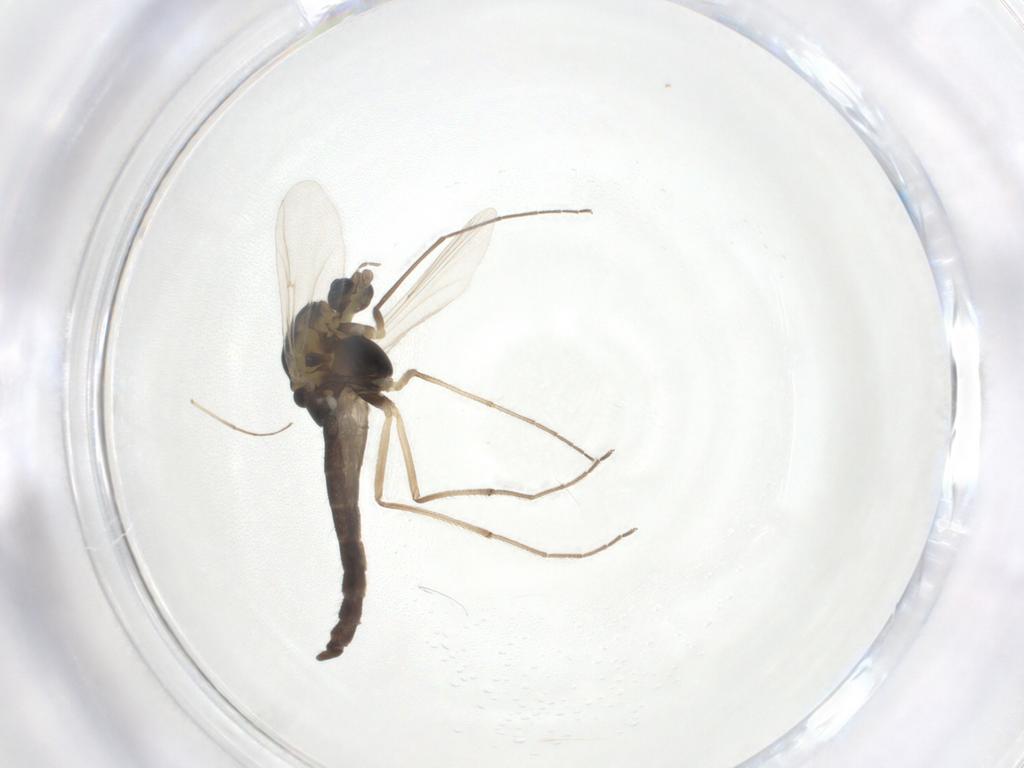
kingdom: Animalia
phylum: Arthropoda
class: Insecta
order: Diptera
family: Chironomidae
